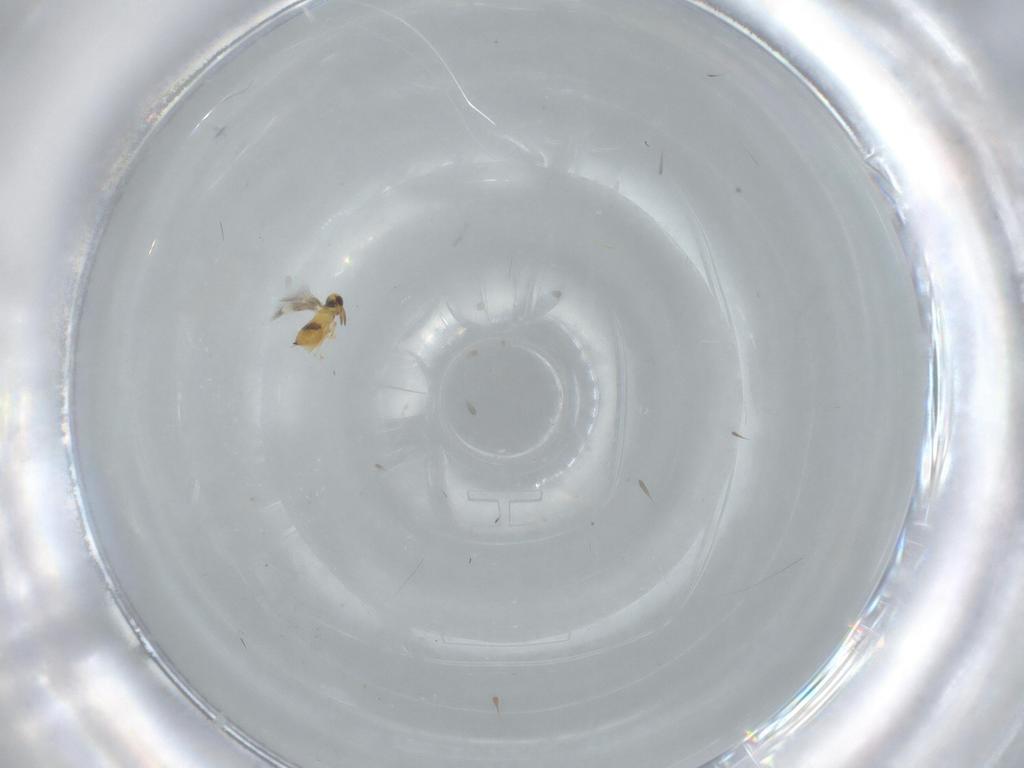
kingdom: Animalia
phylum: Arthropoda
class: Insecta
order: Hymenoptera
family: Signiphoridae
